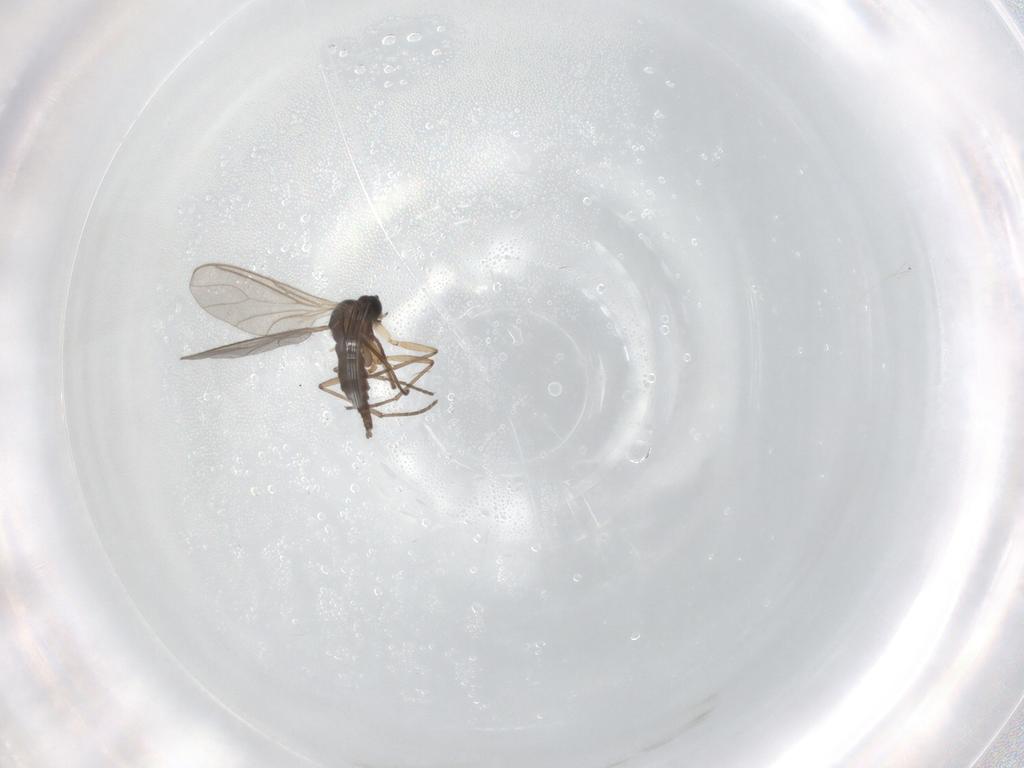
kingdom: Animalia
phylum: Arthropoda
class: Insecta
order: Diptera
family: Sciaridae
